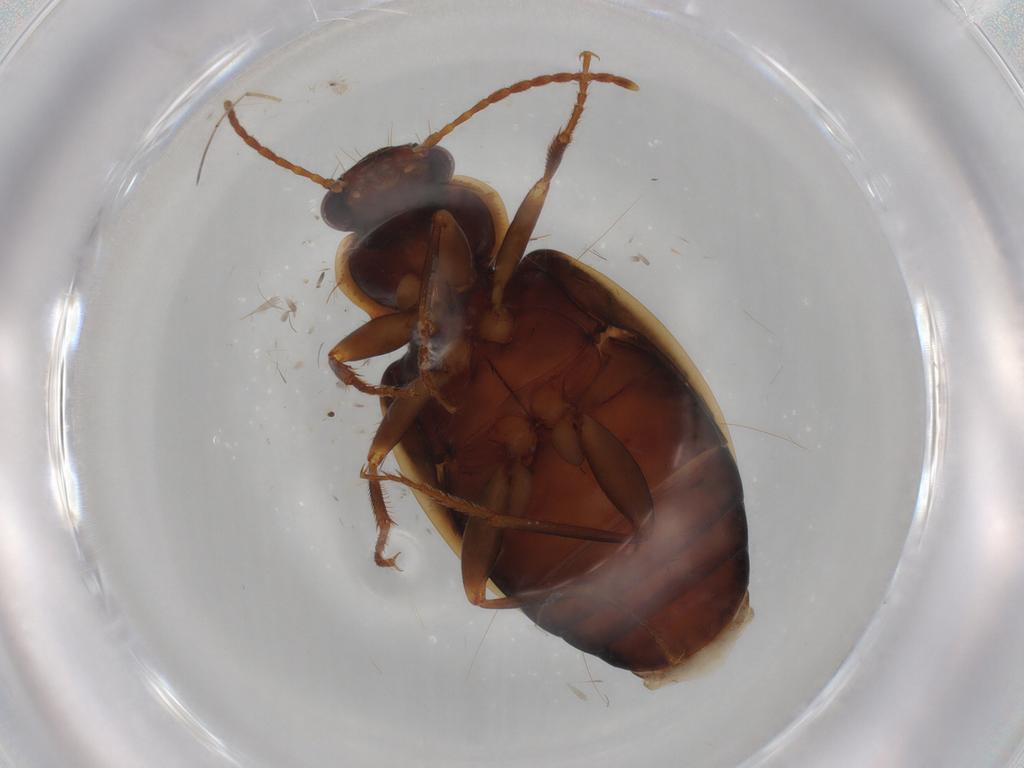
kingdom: Animalia
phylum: Arthropoda
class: Insecta
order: Coleoptera
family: Carabidae
